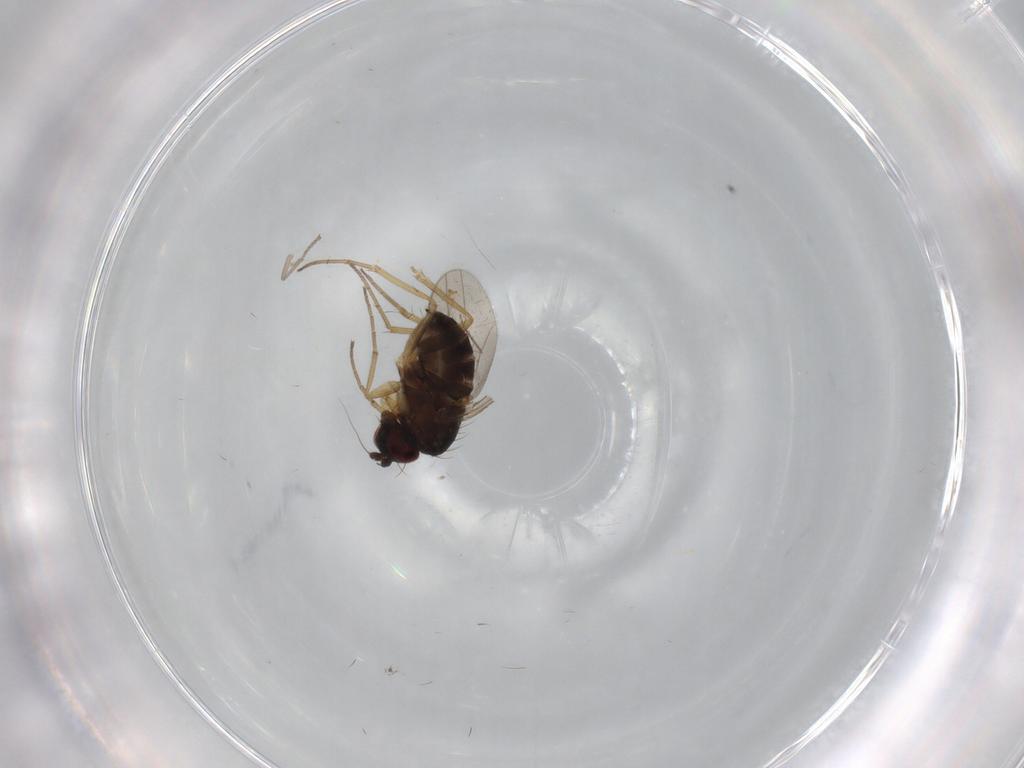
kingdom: Animalia
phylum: Arthropoda
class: Insecta
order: Diptera
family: Dolichopodidae
